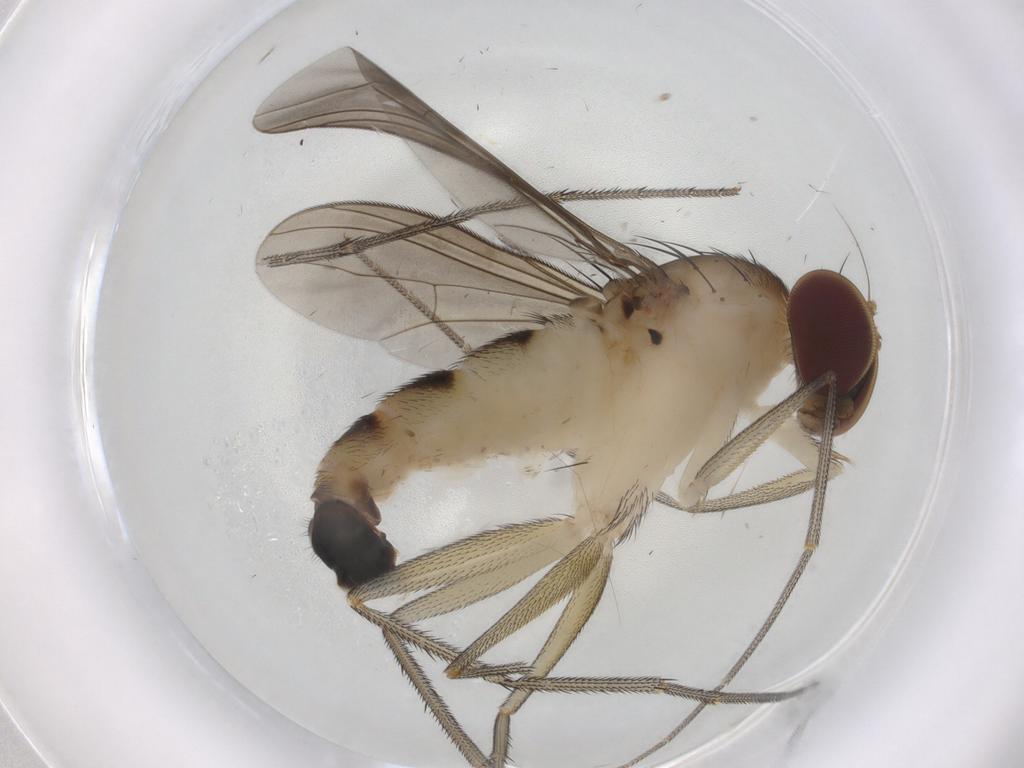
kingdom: Animalia
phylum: Arthropoda
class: Insecta
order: Diptera
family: Dolichopodidae
